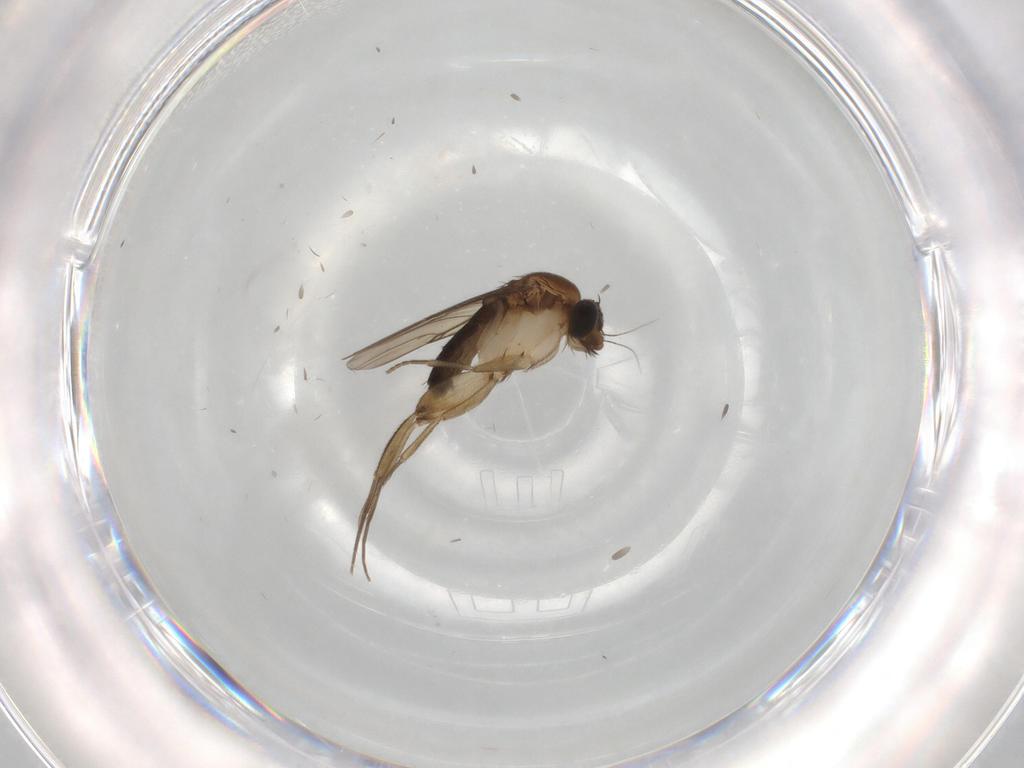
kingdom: Animalia
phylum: Arthropoda
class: Insecta
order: Diptera
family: Phoridae
